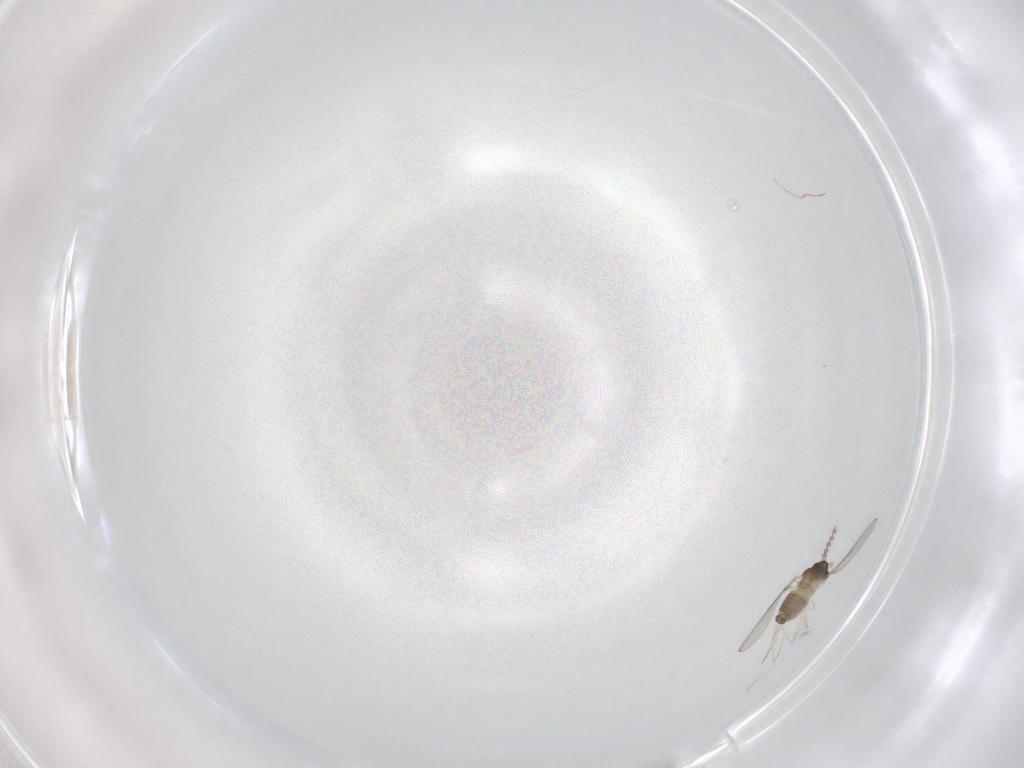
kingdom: Animalia
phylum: Arthropoda
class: Insecta
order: Diptera
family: Cecidomyiidae
